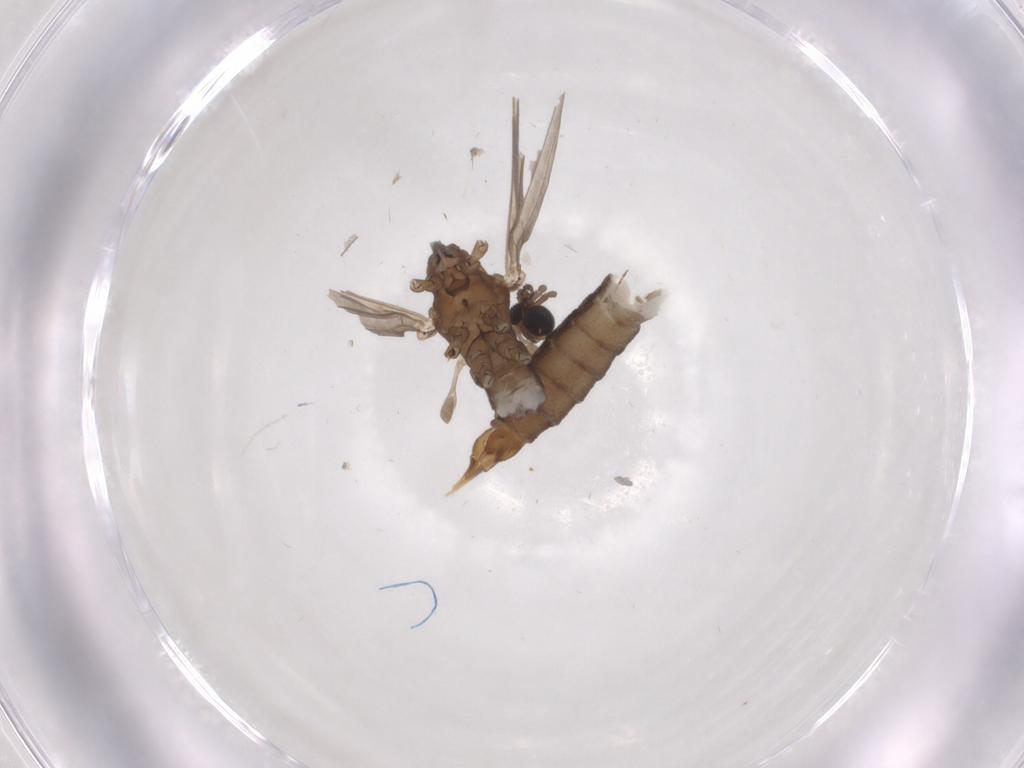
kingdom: Animalia
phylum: Arthropoda
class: Insecta
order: Diptera
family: Limoniidae
